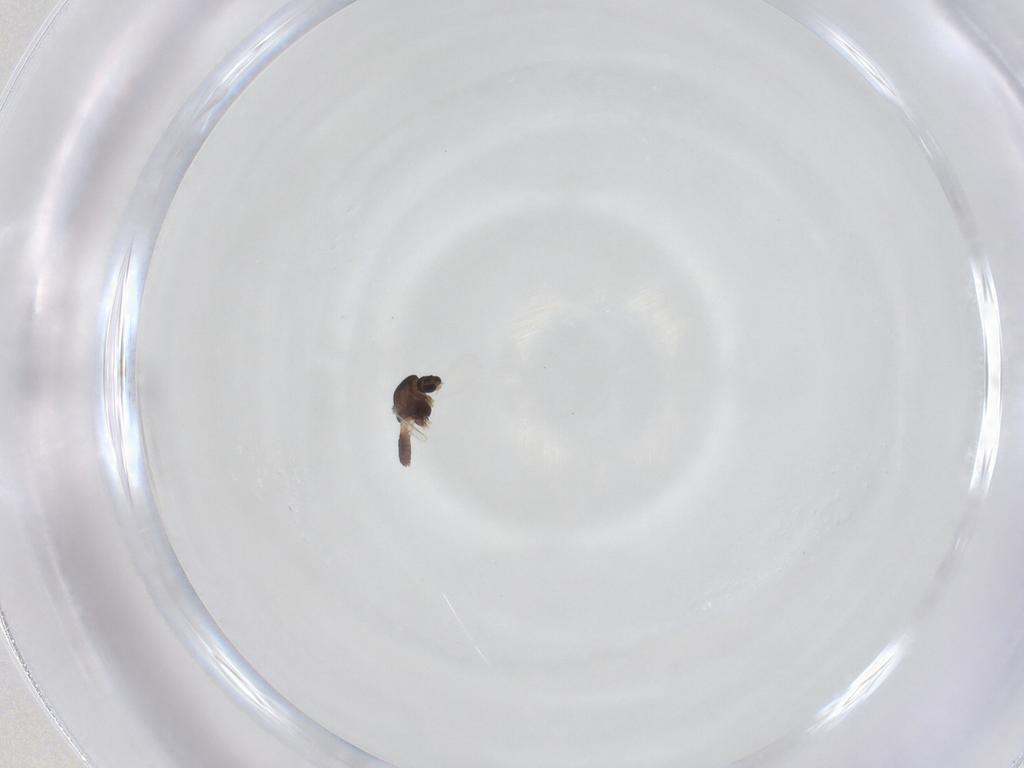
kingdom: Animalia
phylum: Arthropoda
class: Insecta
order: Diptera
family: Chironomidae
